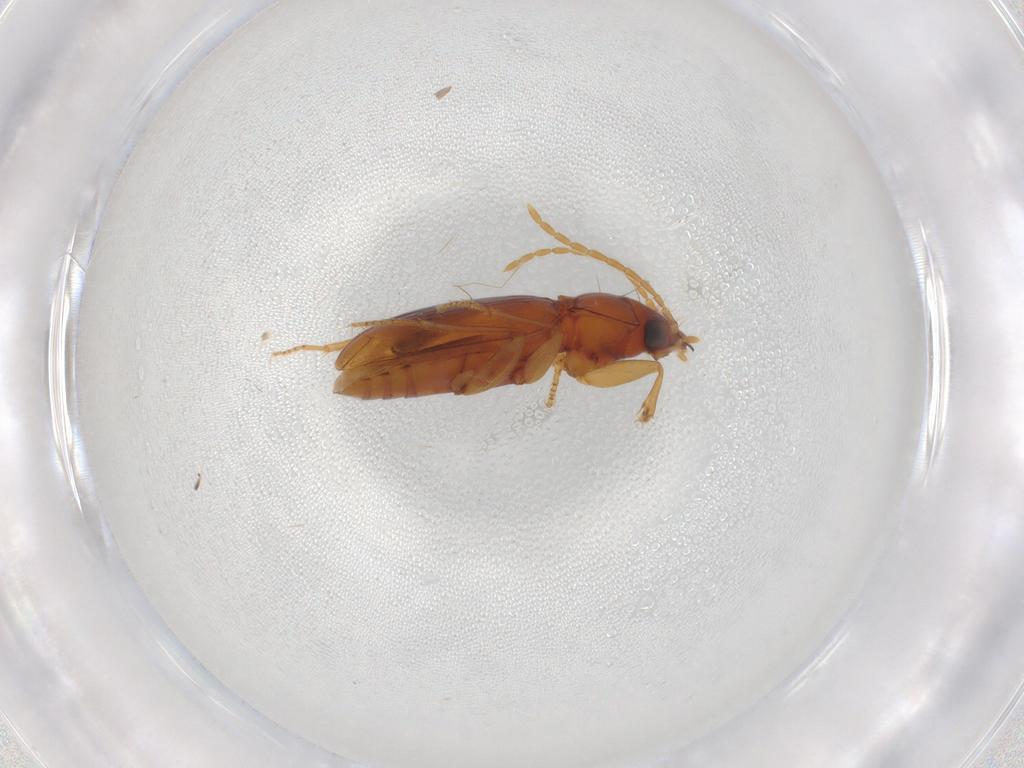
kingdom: Animalia
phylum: Arthropoda
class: Insecta
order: Coleoptera
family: Carabidae
